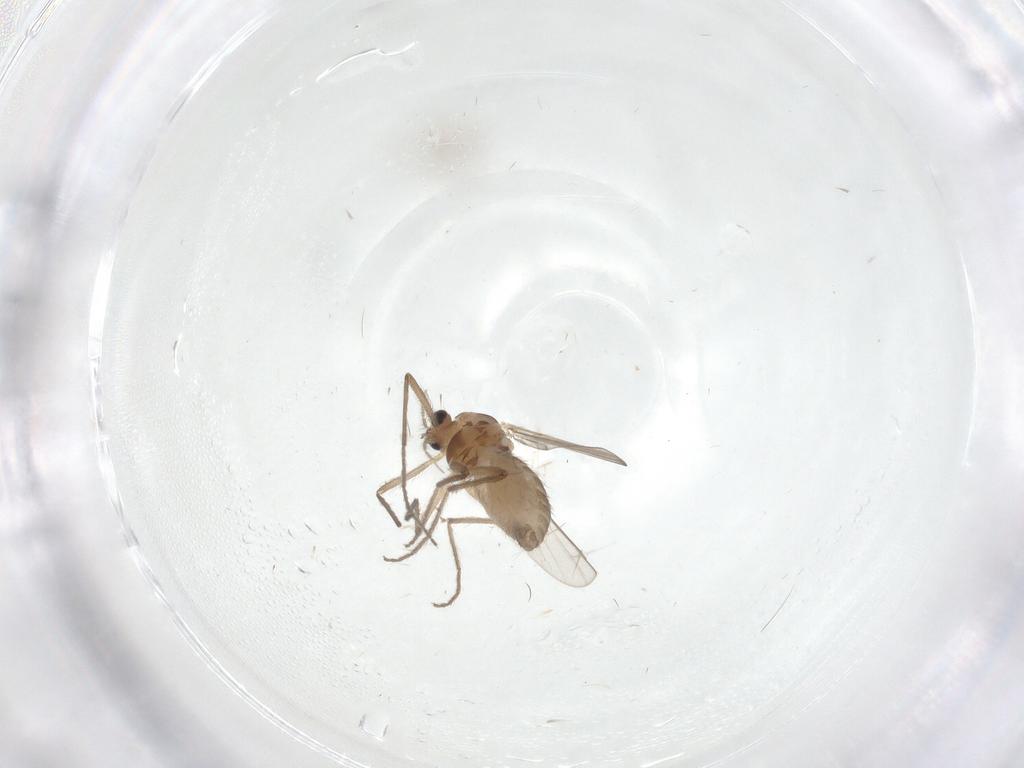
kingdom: Animalia
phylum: Arthropoda
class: Insecta
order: Diptera
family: Chironomidae
